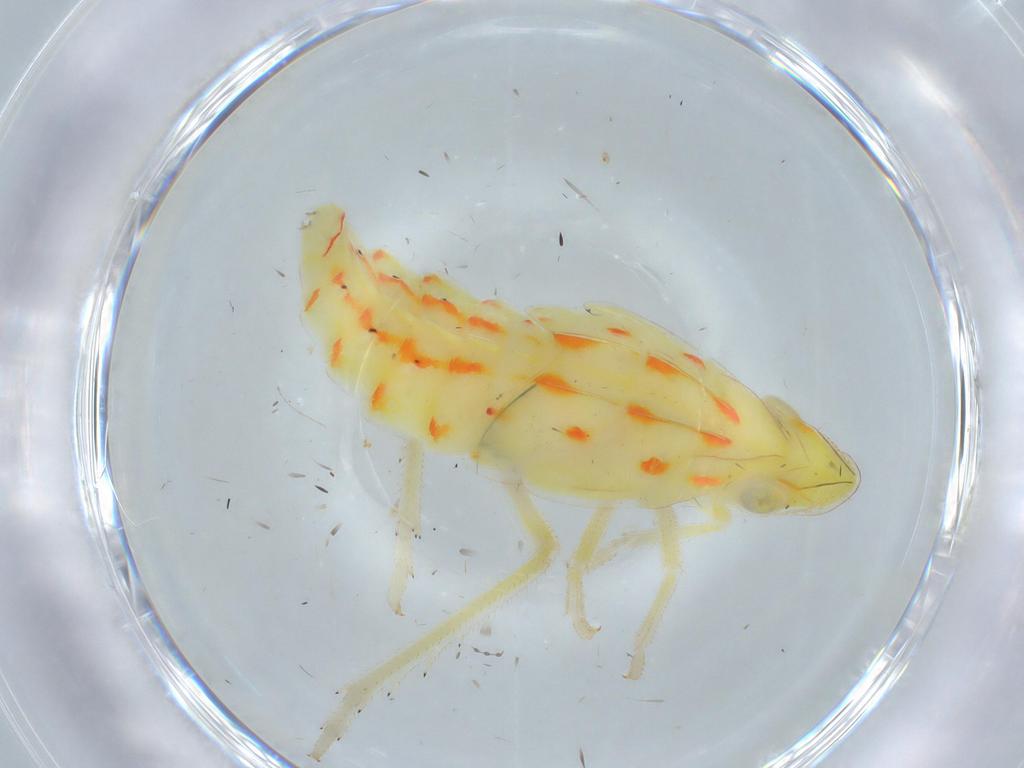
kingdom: Animalia
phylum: Arthropoda
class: Insecta
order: Hemiptera
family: Tropiduchidae
